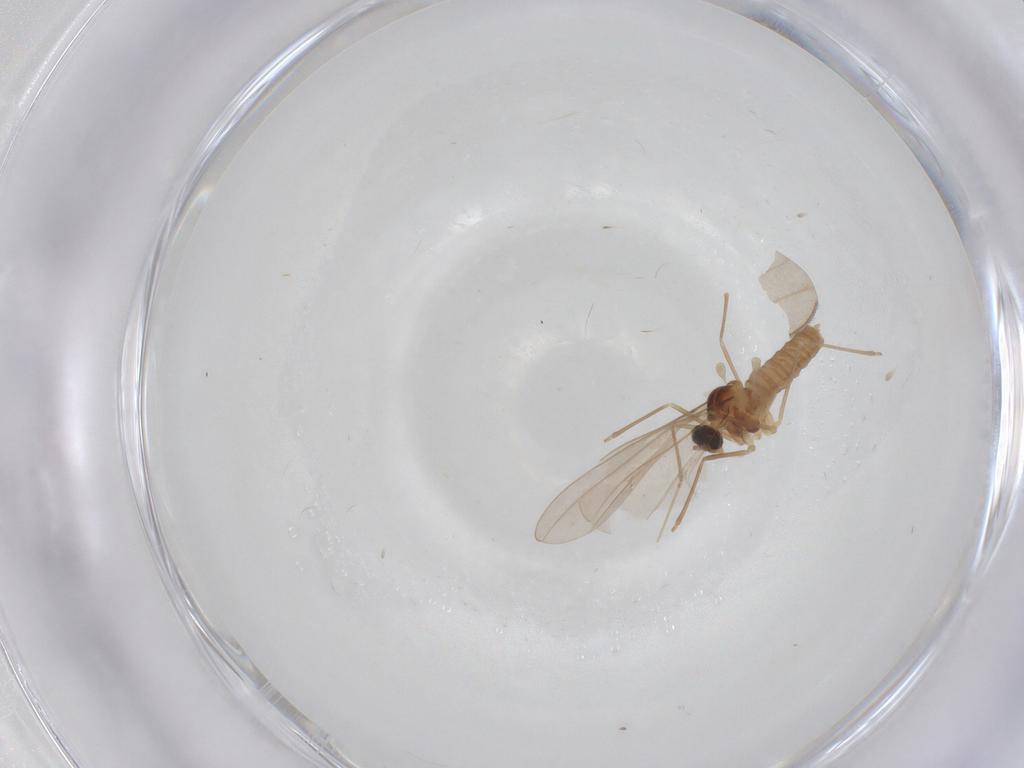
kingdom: Animalia
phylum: Arthropoda
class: Insecta
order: Diptera
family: Cecidomyiidae
